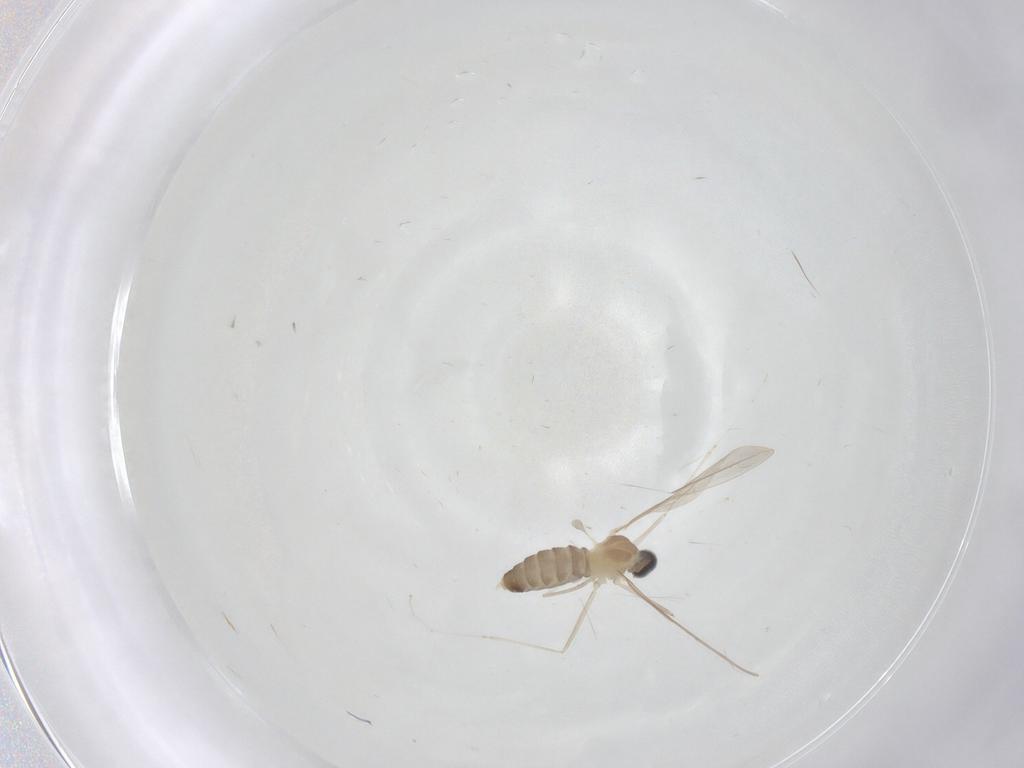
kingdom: Animalia
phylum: Arthropoda
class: Insecta
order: Diptera
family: Cecidomyiidae
